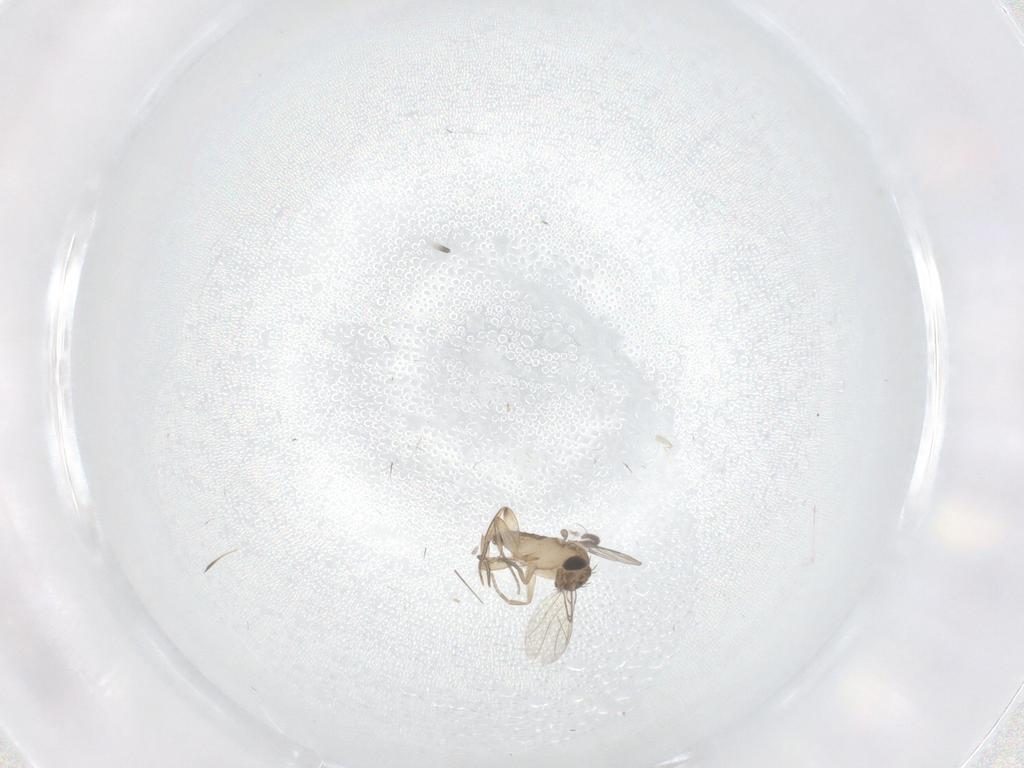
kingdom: Animalia
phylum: Arthropoda
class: Insecta
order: Diptera
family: Phoridae
